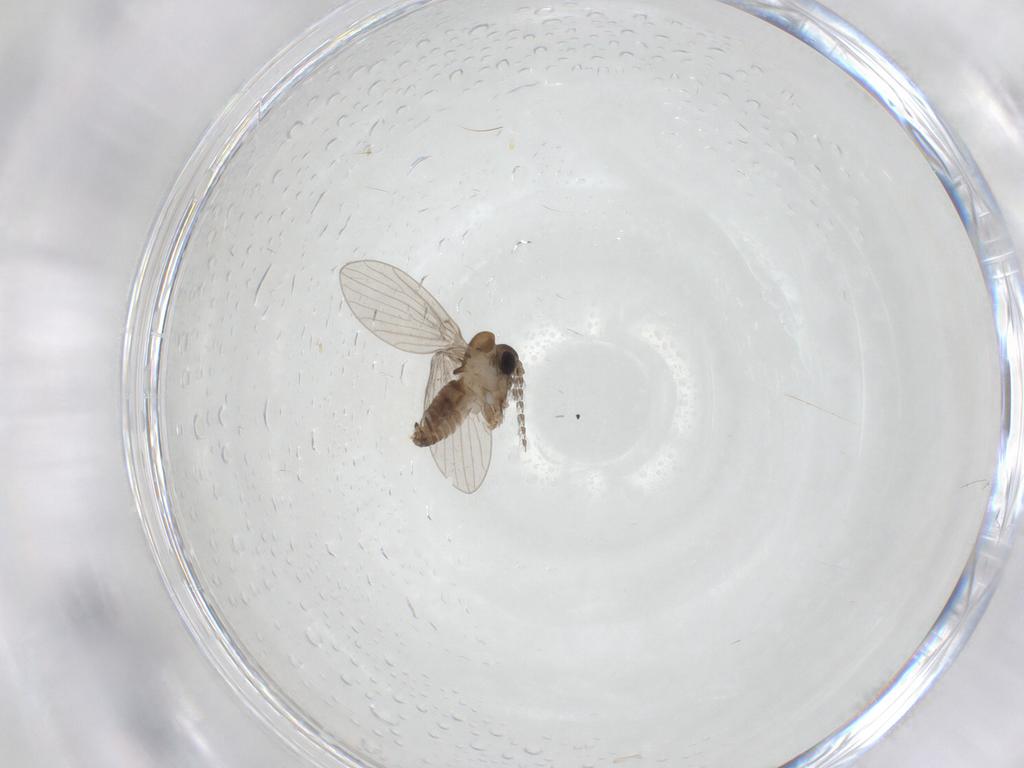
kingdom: Animalia
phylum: Arthropoda
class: Insecta
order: Diptera
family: Psychodidae
